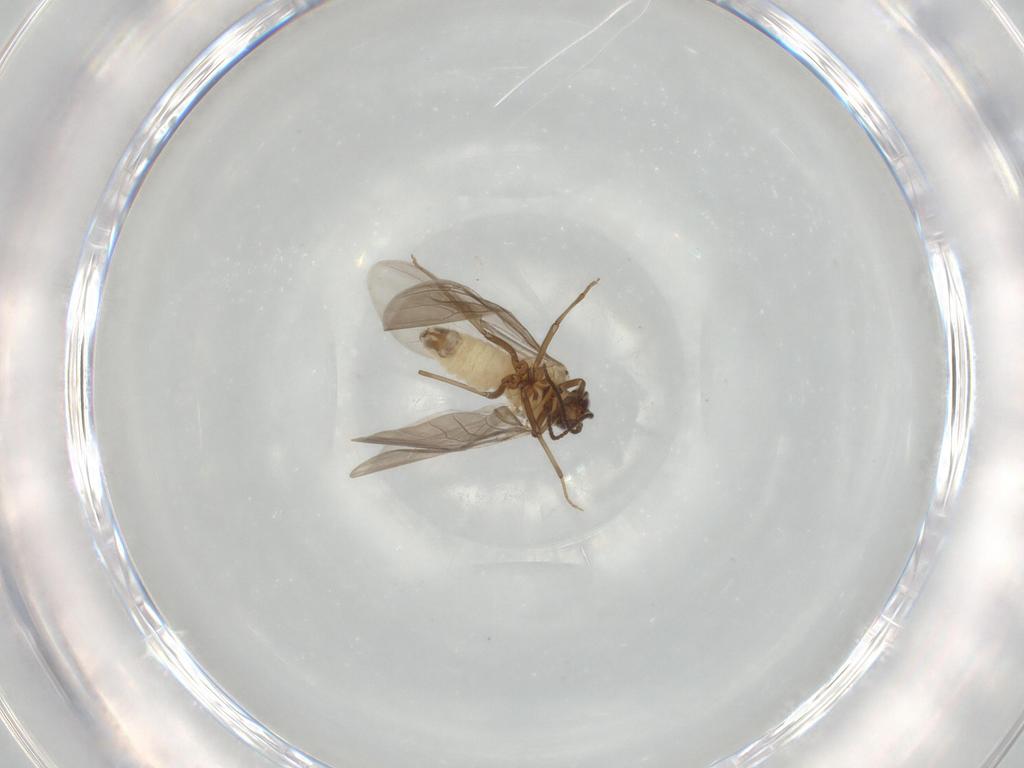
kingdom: Animalia
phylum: Arthropoda
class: Insecta
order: Neuroptera
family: Coniopterygidae
